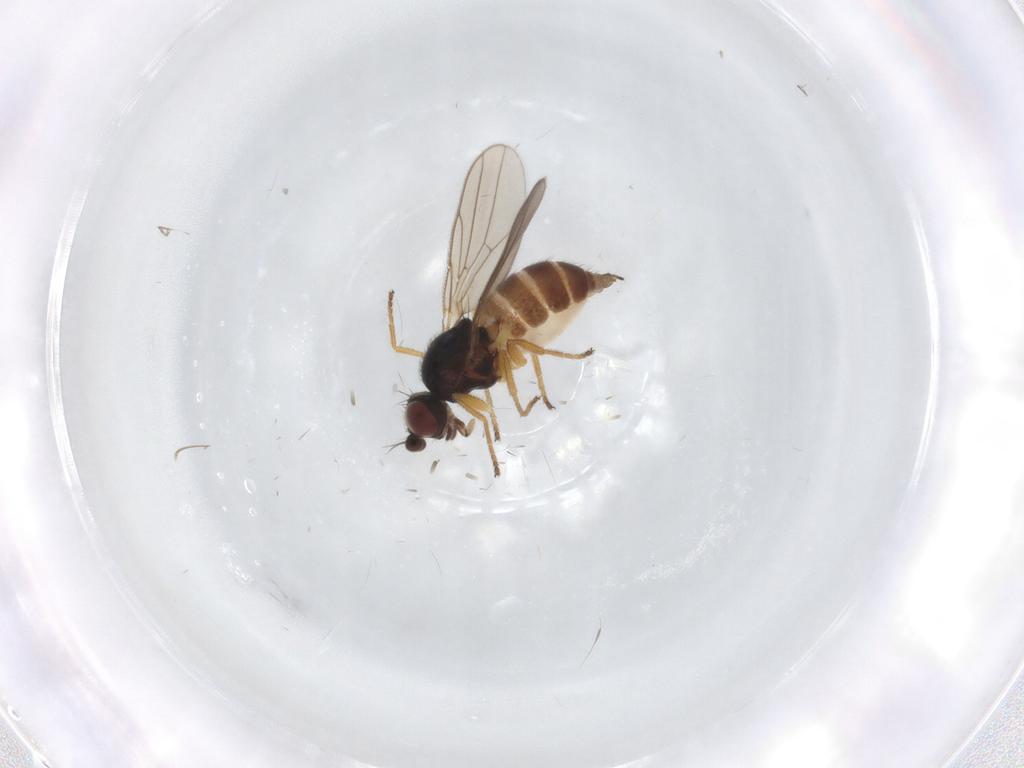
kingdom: Animalia
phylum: Arthropoda
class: Insecta
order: Diptera
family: Chloropidae
